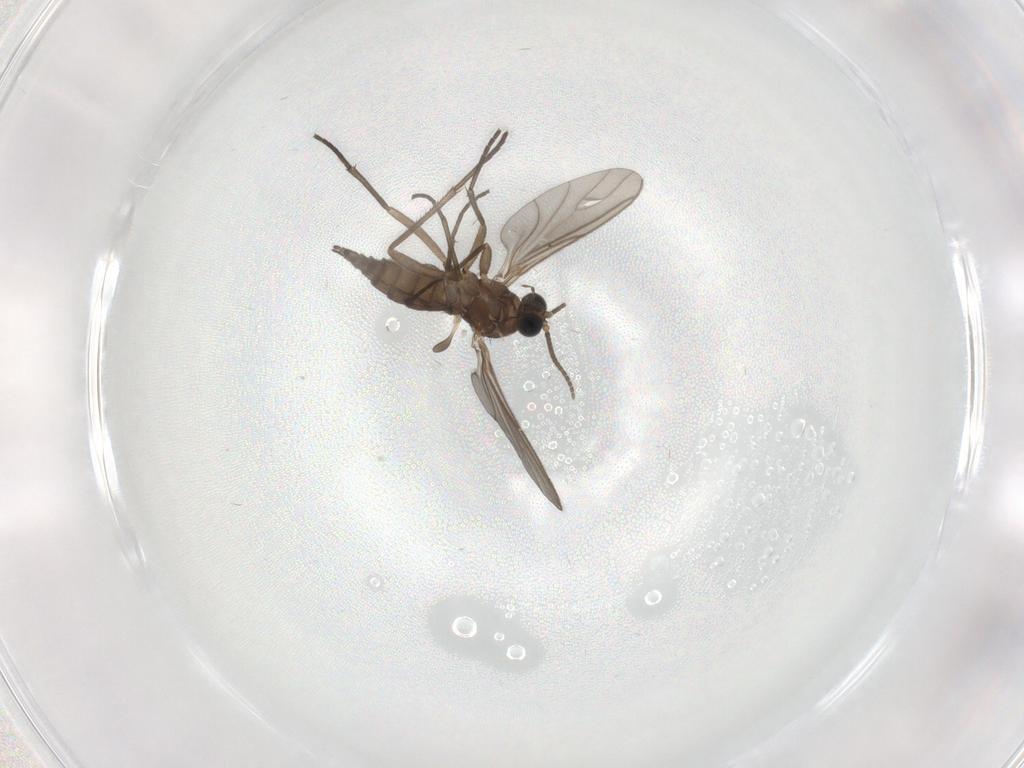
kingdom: Animalia
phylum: Arthropoda
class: Insecta
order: Diptera
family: Sciaridae
